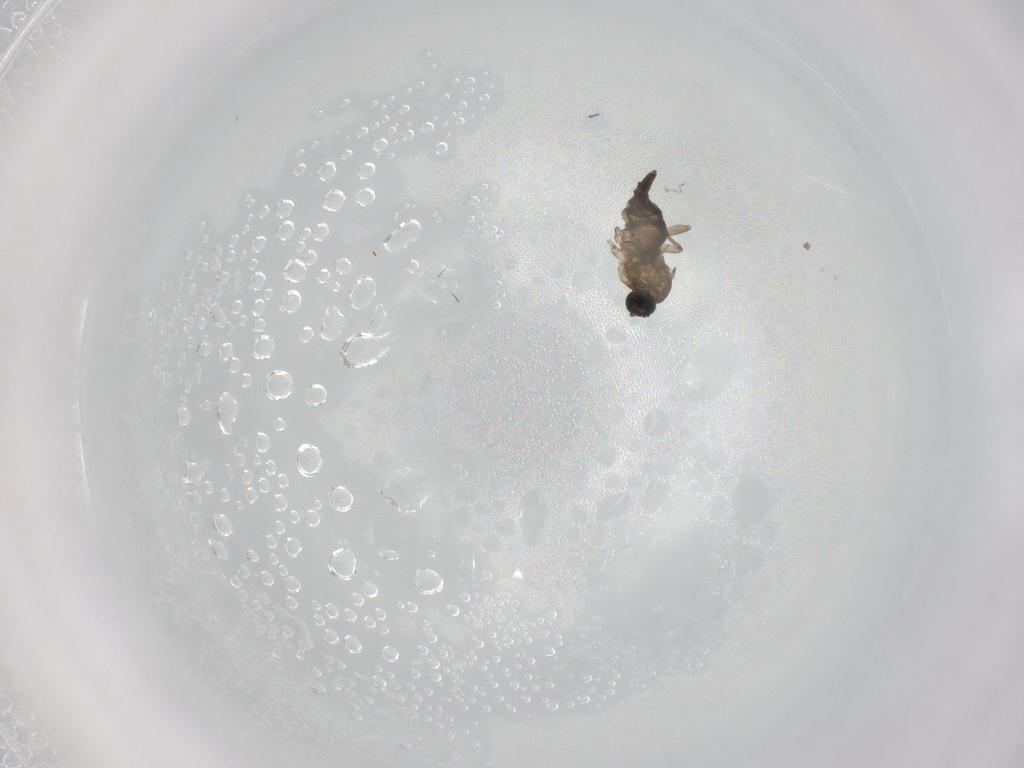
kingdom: Animalia
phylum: Arthropoda
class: Insecta
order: Diptera
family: Sciaridae
